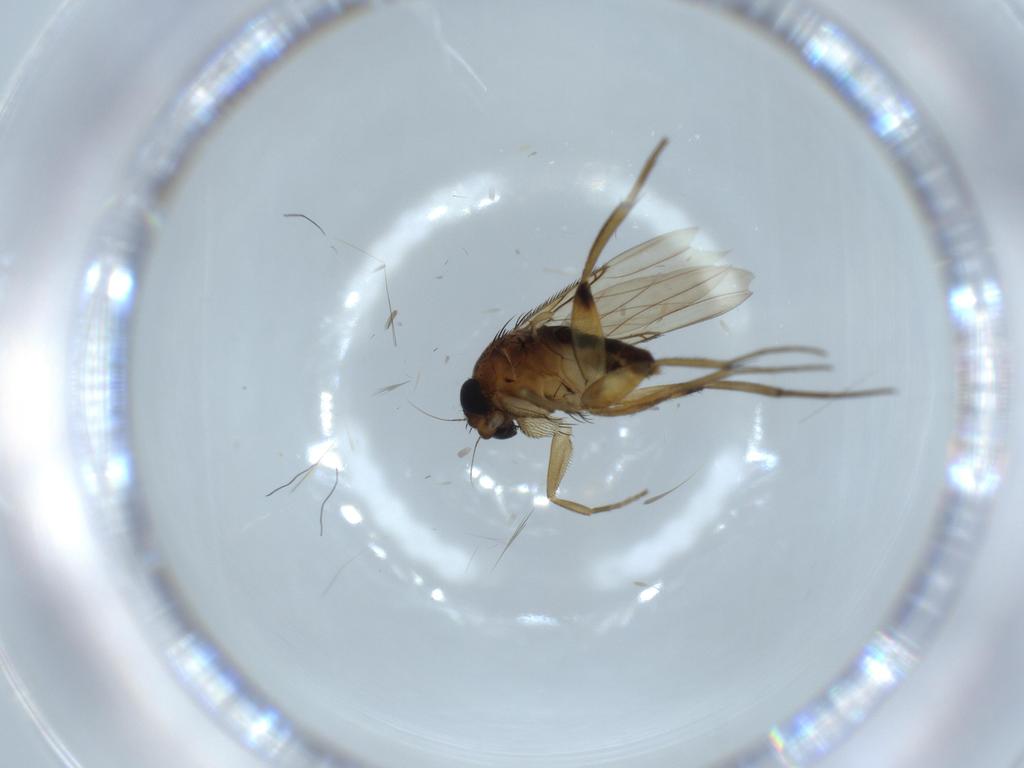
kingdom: Animalia
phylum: Arthropoda
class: Insecta
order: Diptera
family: Phoridae
